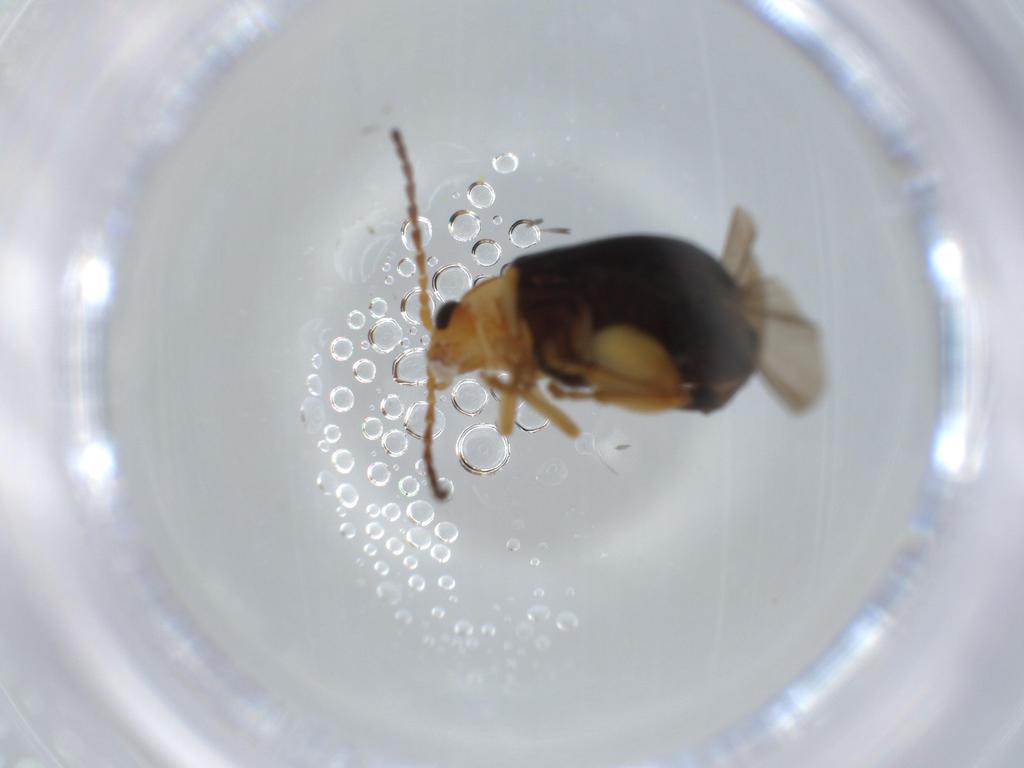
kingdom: Animalia
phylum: Arthropoda
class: Insecta
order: Coleoptera
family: Chrysomelidae
